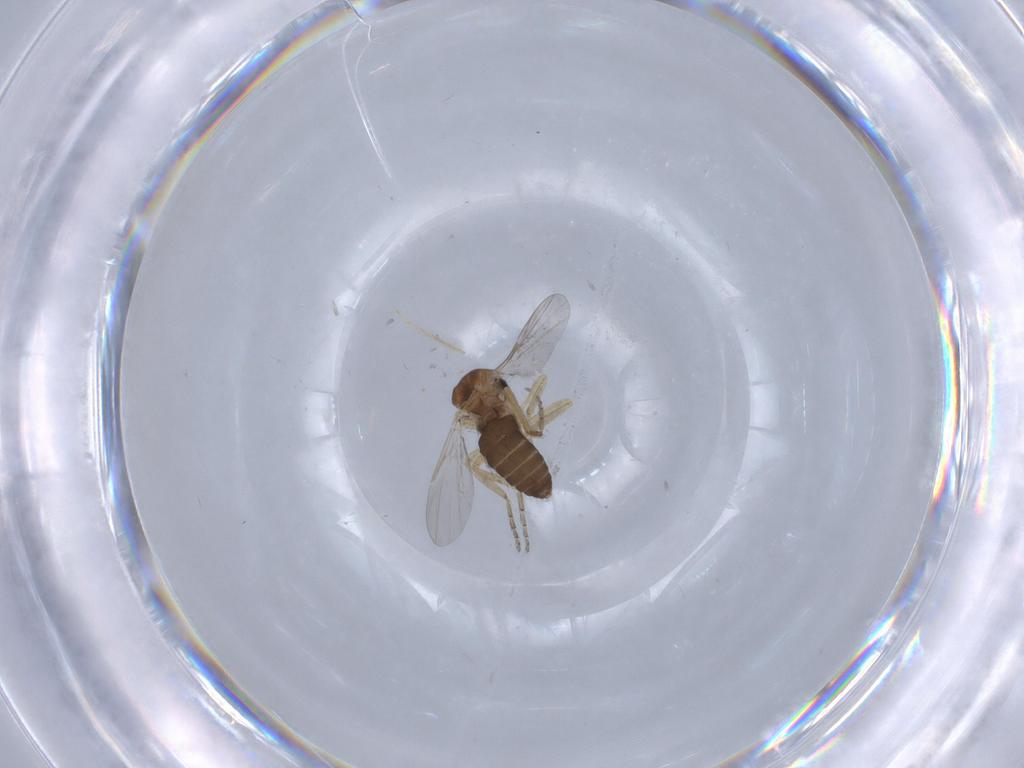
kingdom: Animalia
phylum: Arthropoda
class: Insecta
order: Diptera
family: Ceratopogonidae
